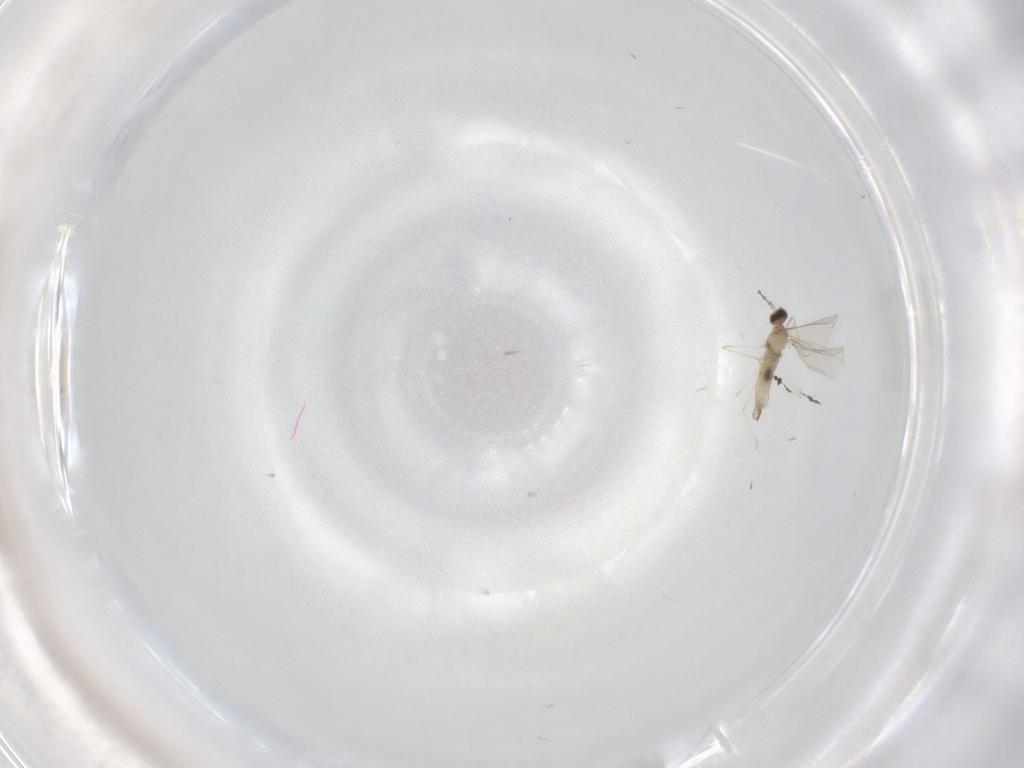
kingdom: Animalia
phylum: Arthropoda
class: Insecta
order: Diptera
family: Cecidomyiidae
